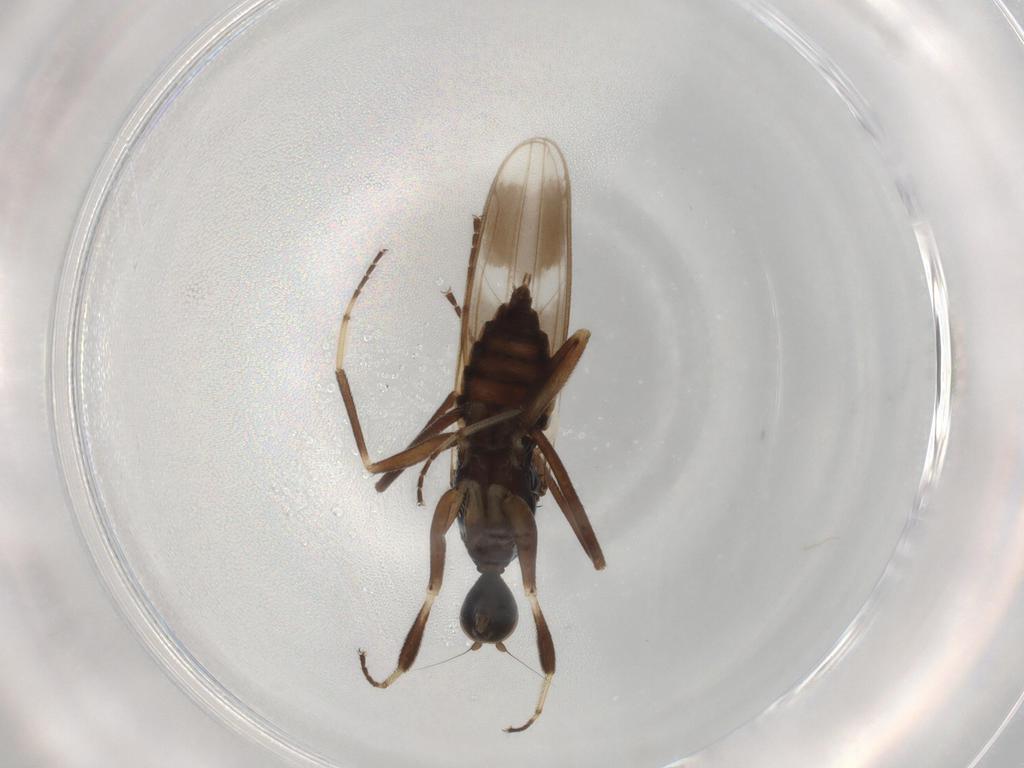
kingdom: Animalia
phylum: Arthropoda
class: Insecta
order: Diptera
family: Hybotidae
